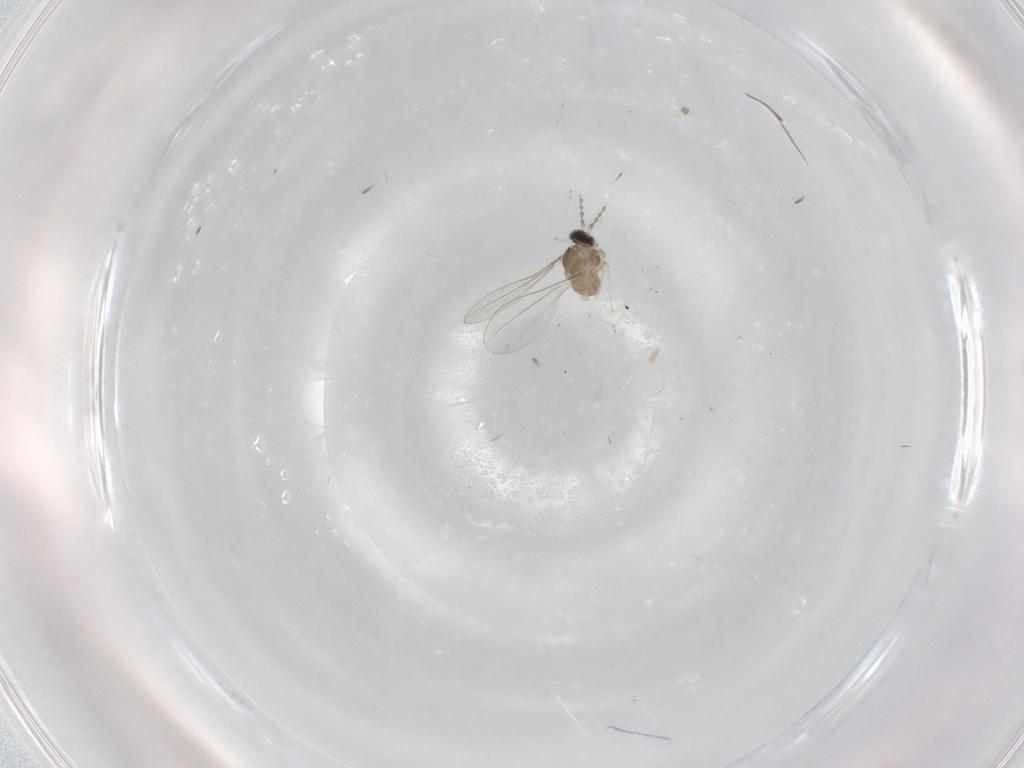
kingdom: Animalia
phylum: Arthropoda
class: Insecta
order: Diptera
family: Cecidomyiidae
